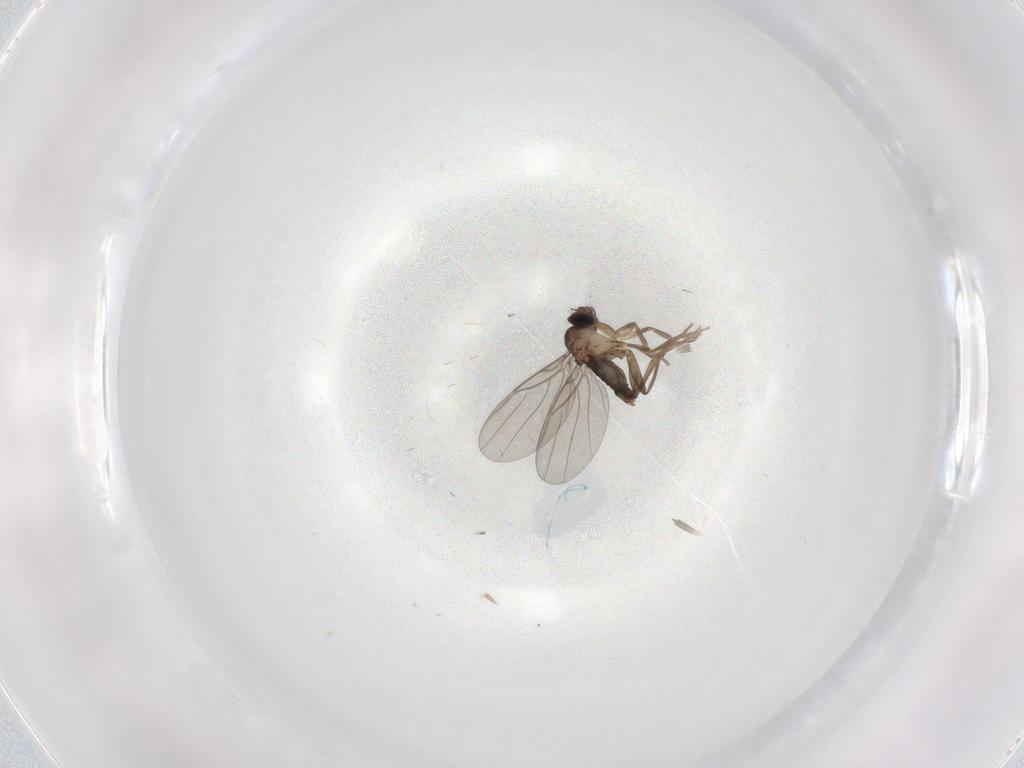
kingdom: Animalia
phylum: Arthropoda
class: Insecta
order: Diptera
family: Phoridae
